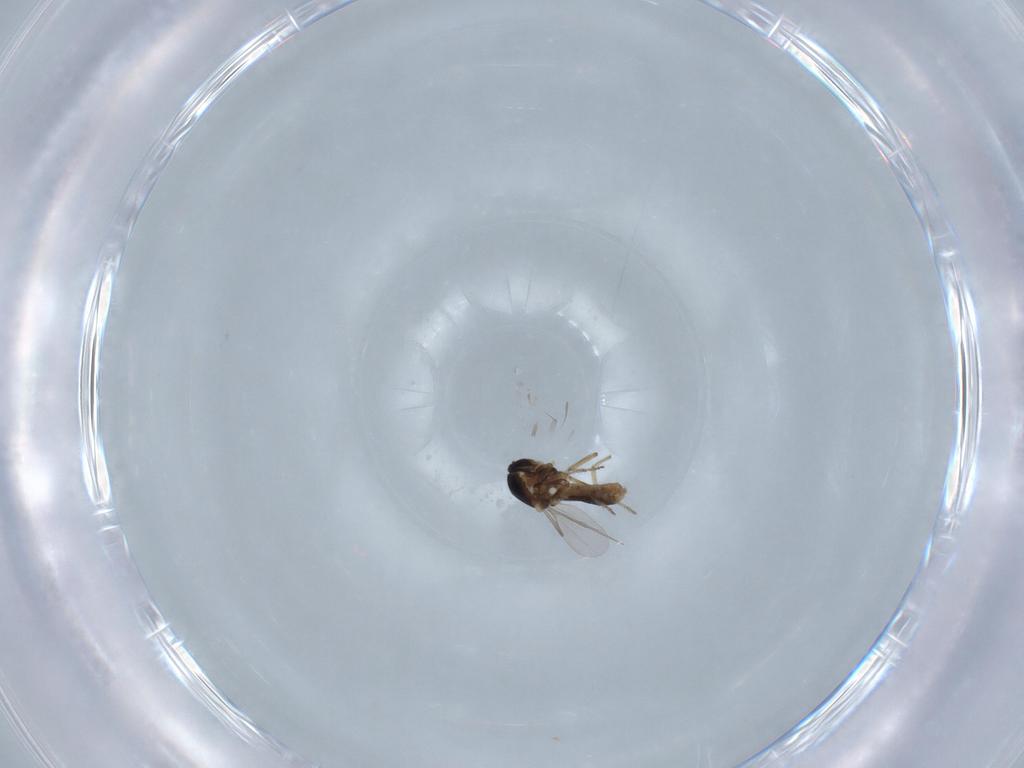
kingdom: Animalia
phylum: Arthropoda
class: Insecta
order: Diptera
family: Ceratopogonidae
